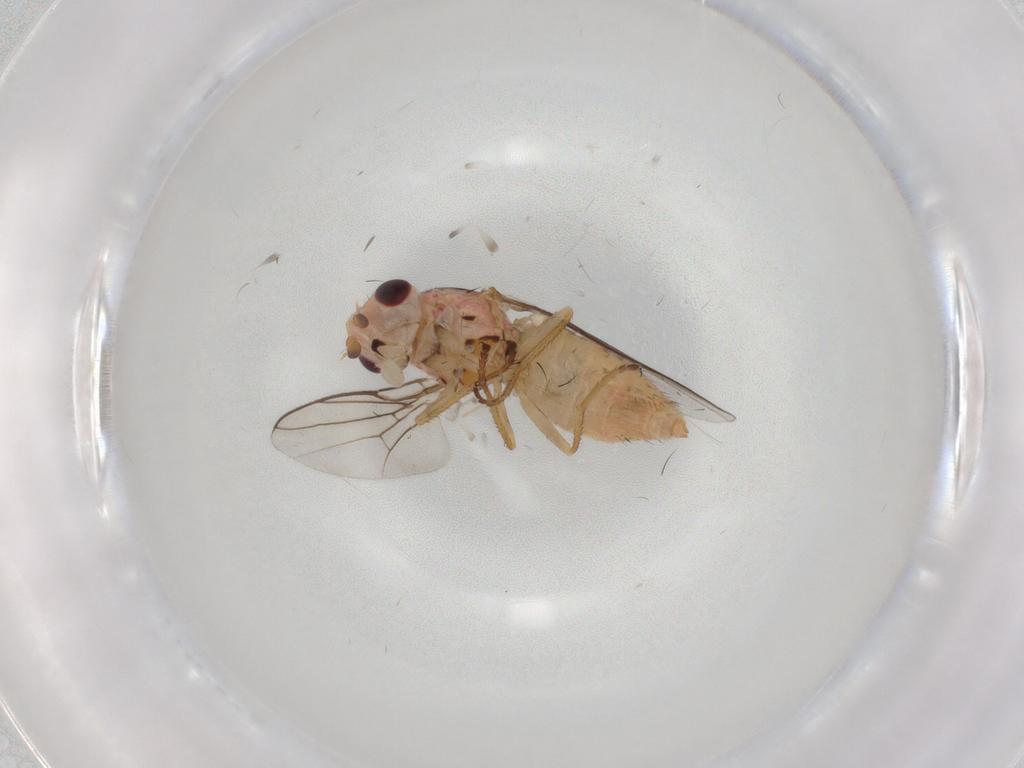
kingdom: Animalia
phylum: Arthropoda
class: Insecta
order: Diptera
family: Chloropidae
